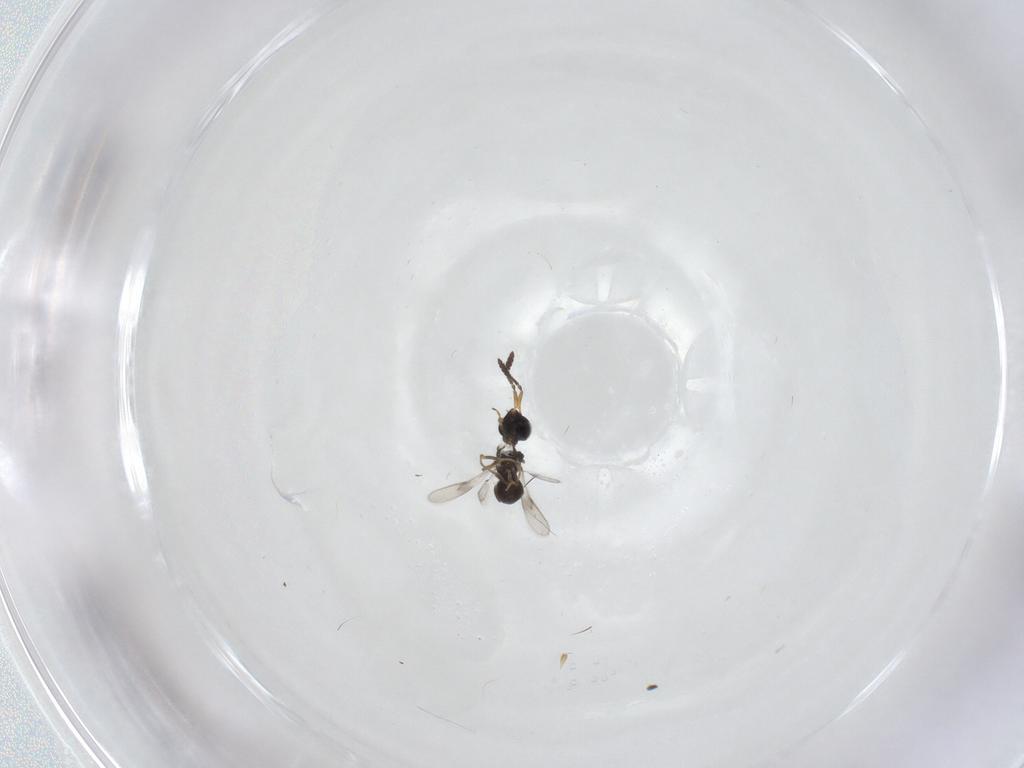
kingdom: Animalia
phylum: Arthropoda
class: Insecta
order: Hymenoptera
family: Scelionidae
